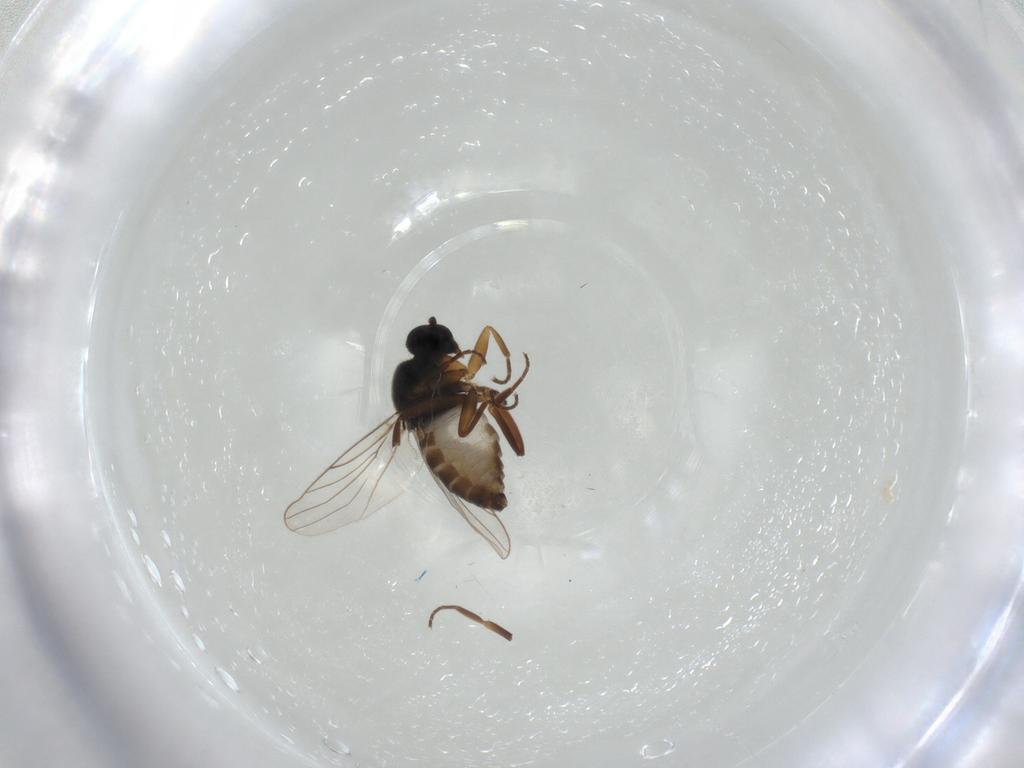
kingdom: Animalia
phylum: Arthropoda
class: Insecta
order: Diptera
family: Hybotidae
